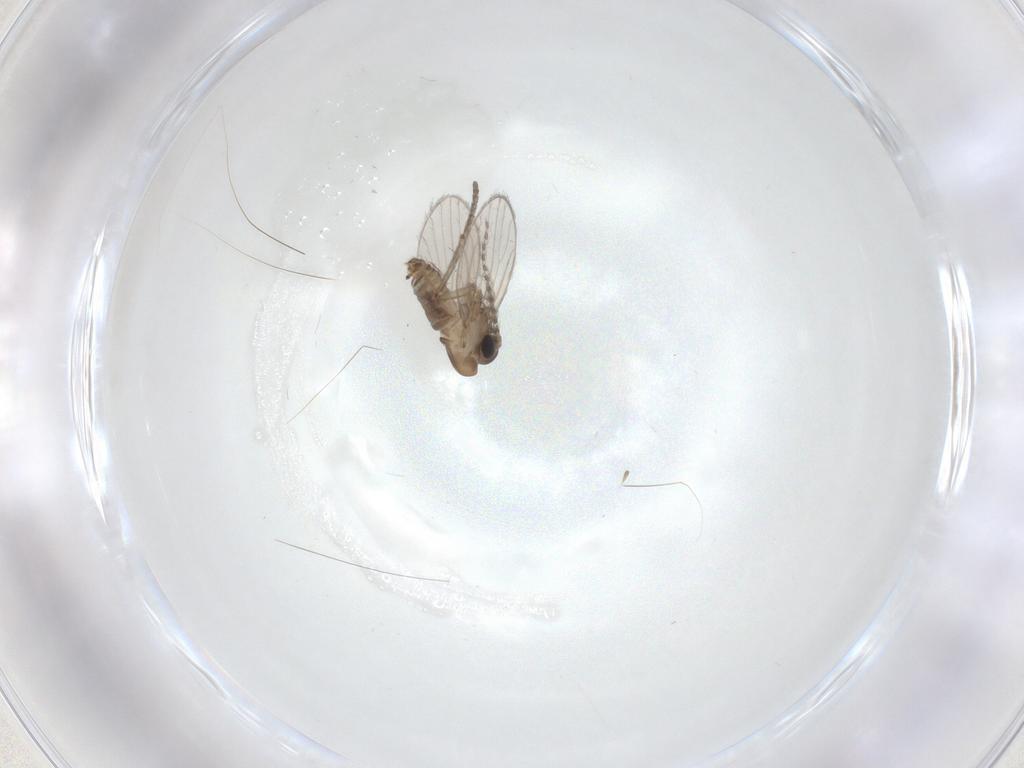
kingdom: Animalia
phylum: Arthropoda
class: Insecta
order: Diptera
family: Psychodidae
